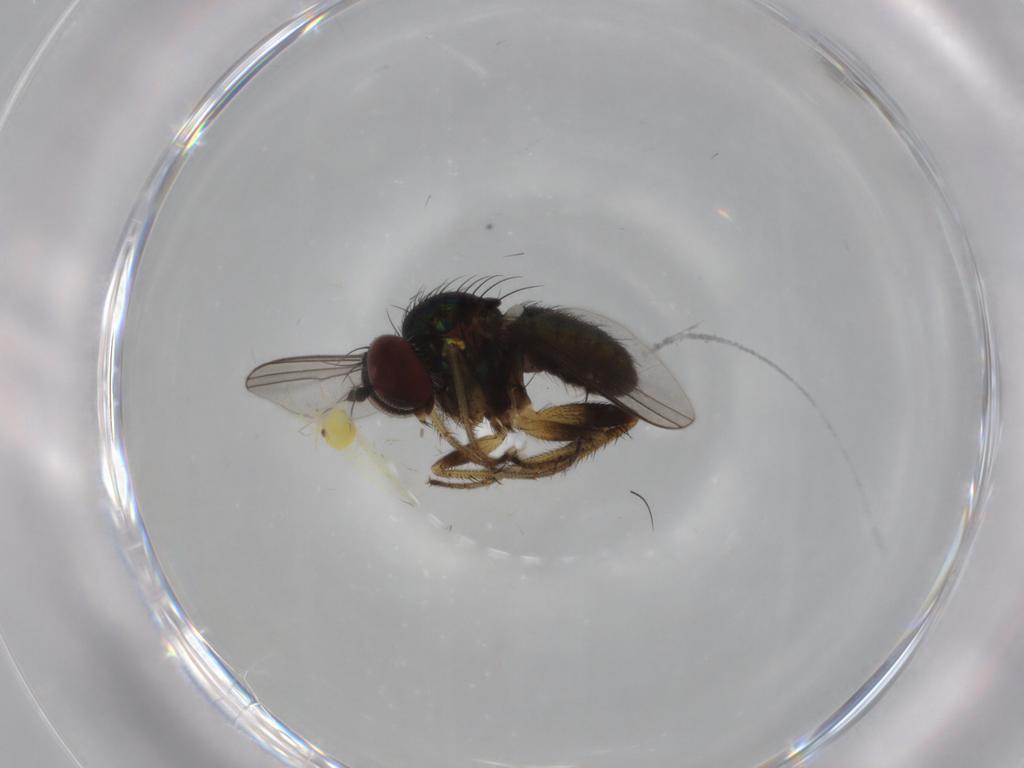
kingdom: Animalia
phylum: Arthropoda
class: Insecta
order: Diptera
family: Dolichopodidae
